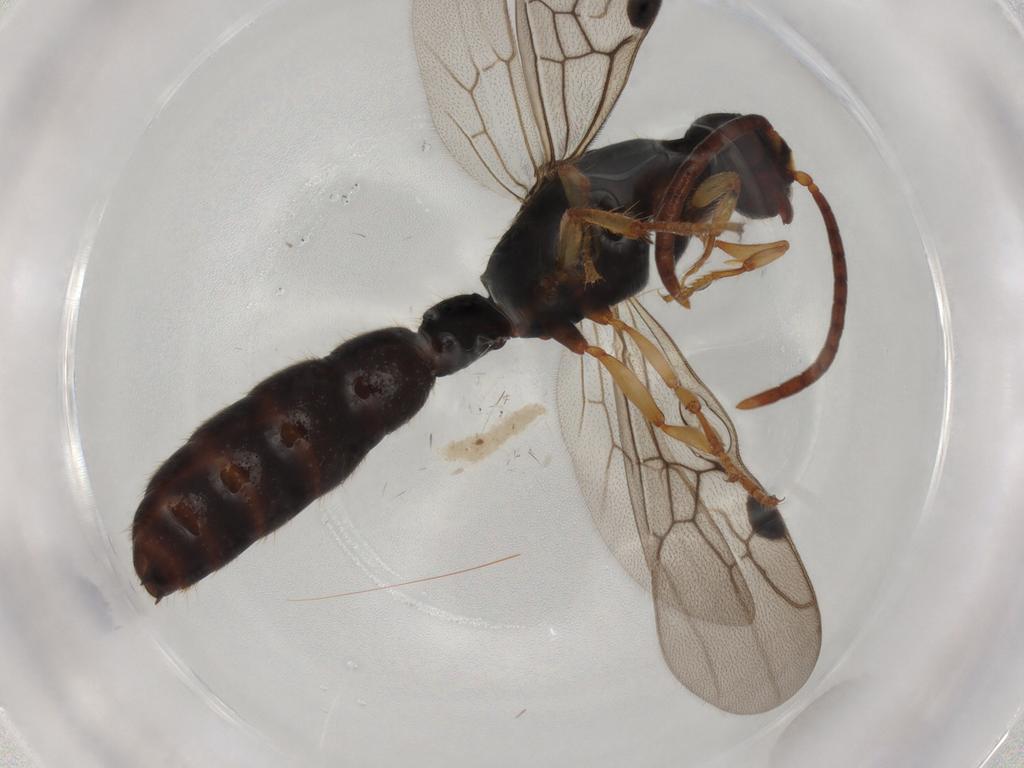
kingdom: Animalia
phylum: Arthropoda
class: Insecta
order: Hymenoptera
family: Formicidae
